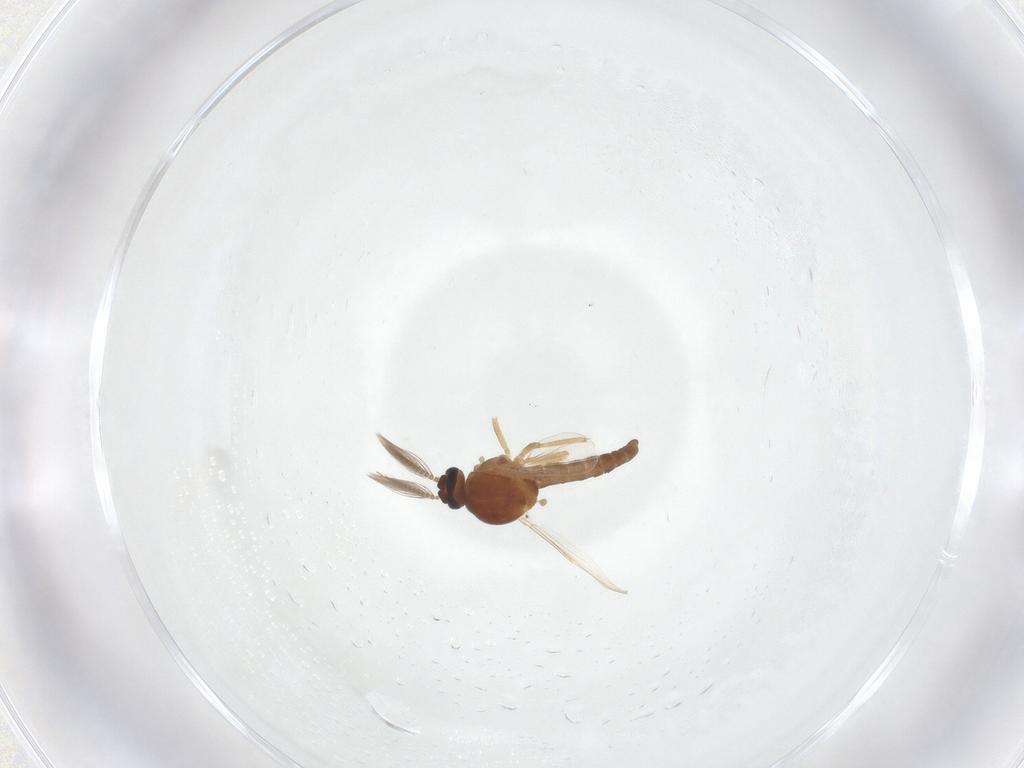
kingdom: Animalia
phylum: Arthropoda
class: Insecta
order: Diptera
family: Ceratopogonidae
